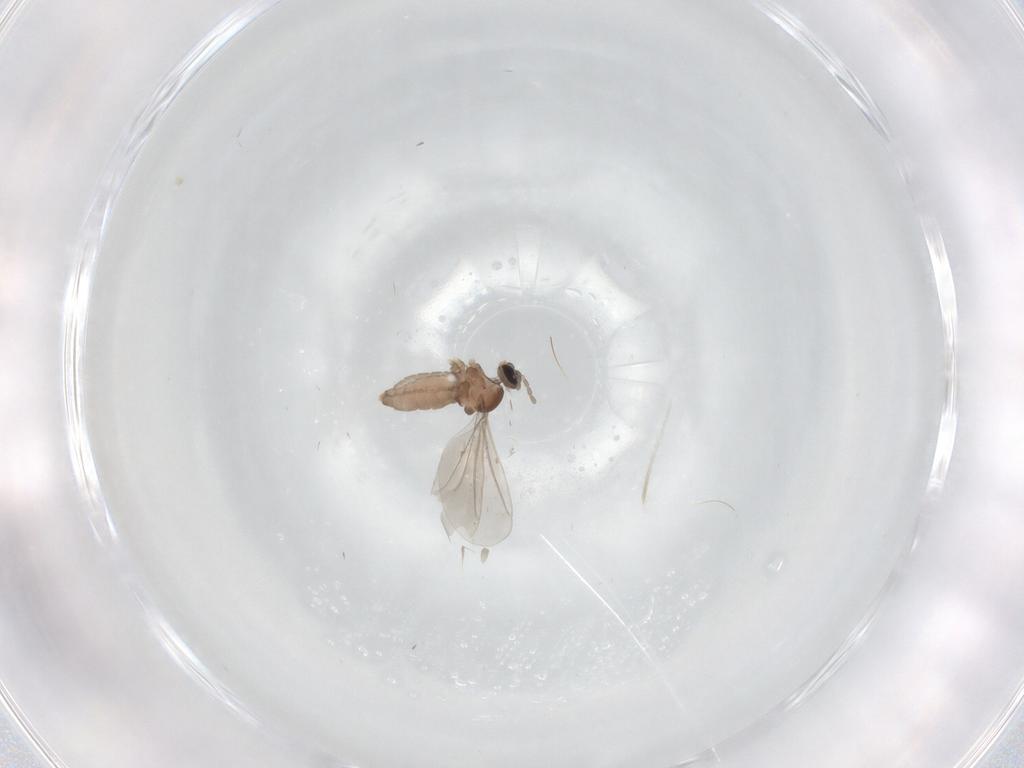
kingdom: Animalia
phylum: Arthropoda
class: Insecta
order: Diptera
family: Cecidomyiidae
